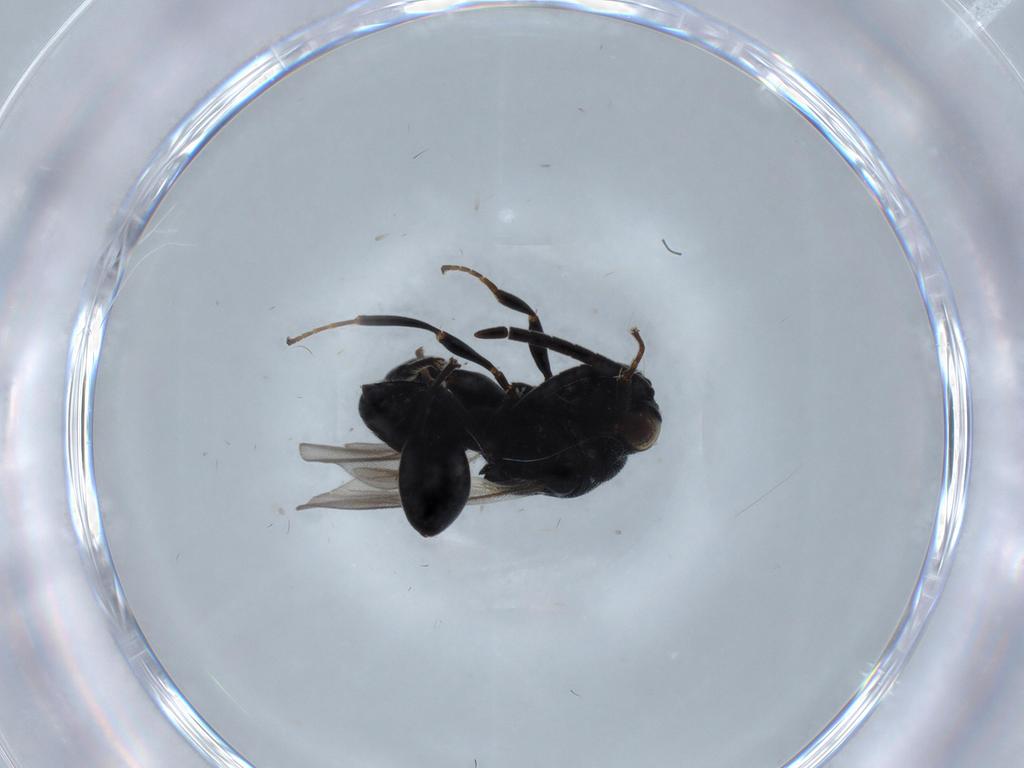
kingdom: Animalia
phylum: Arthropoda
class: Insecta
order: Hymenoptera
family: Chalcididae
